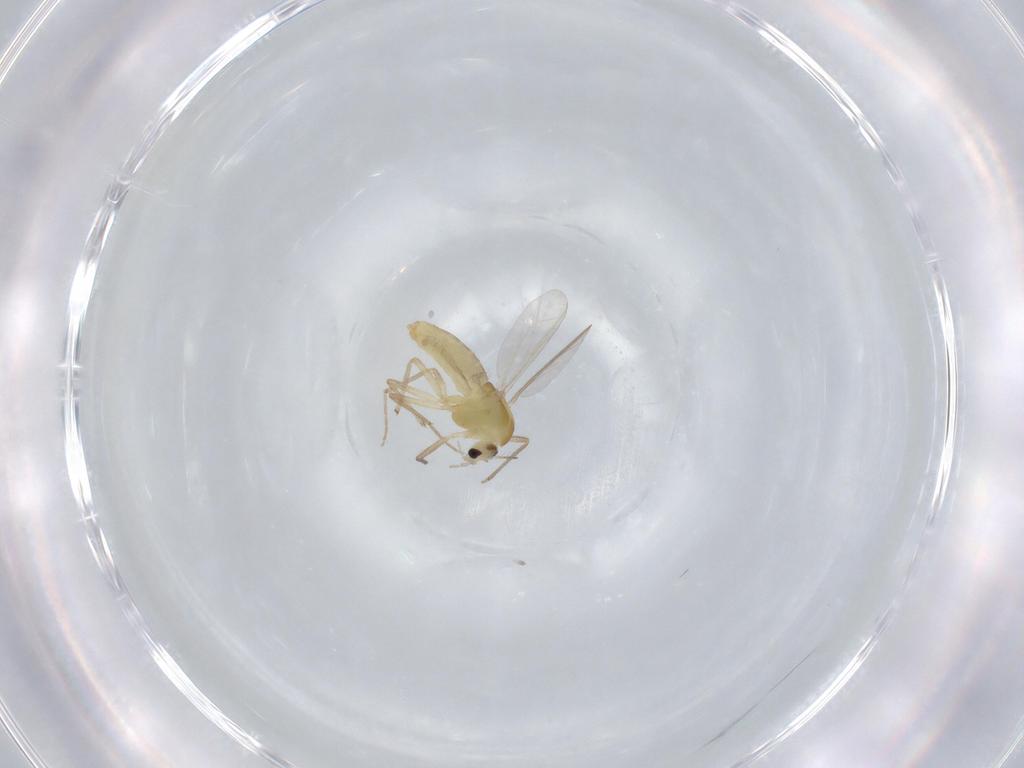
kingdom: Animalia
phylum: Arthropoda
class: Insecta
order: Diptera
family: Chironomidae
